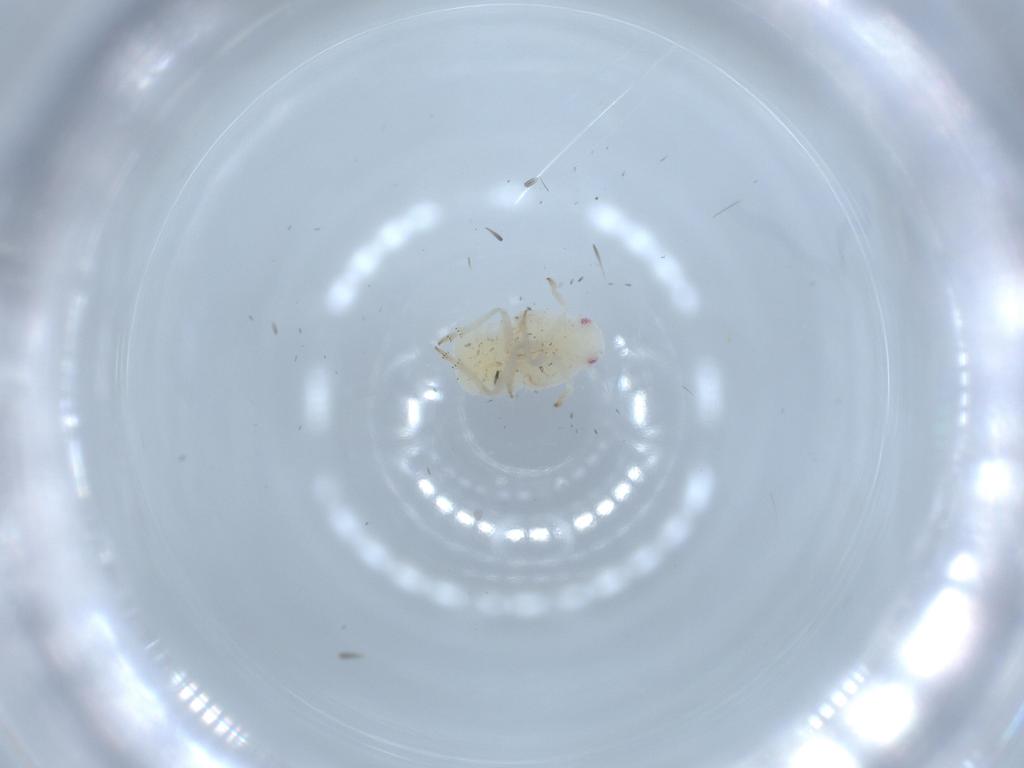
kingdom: Animalia
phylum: Arthropoda
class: Insecta
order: Hemiptera
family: Flatidae
